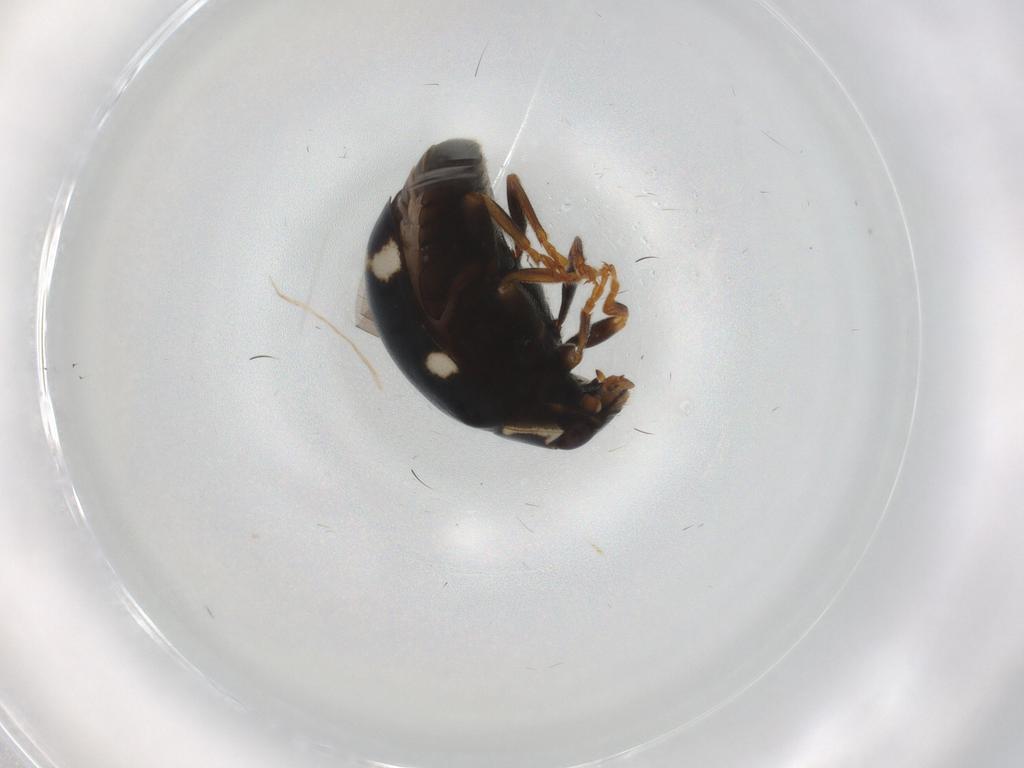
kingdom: Animalia
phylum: Arthropoda
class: Insecta
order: Coleoptera
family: Coccinellidae
